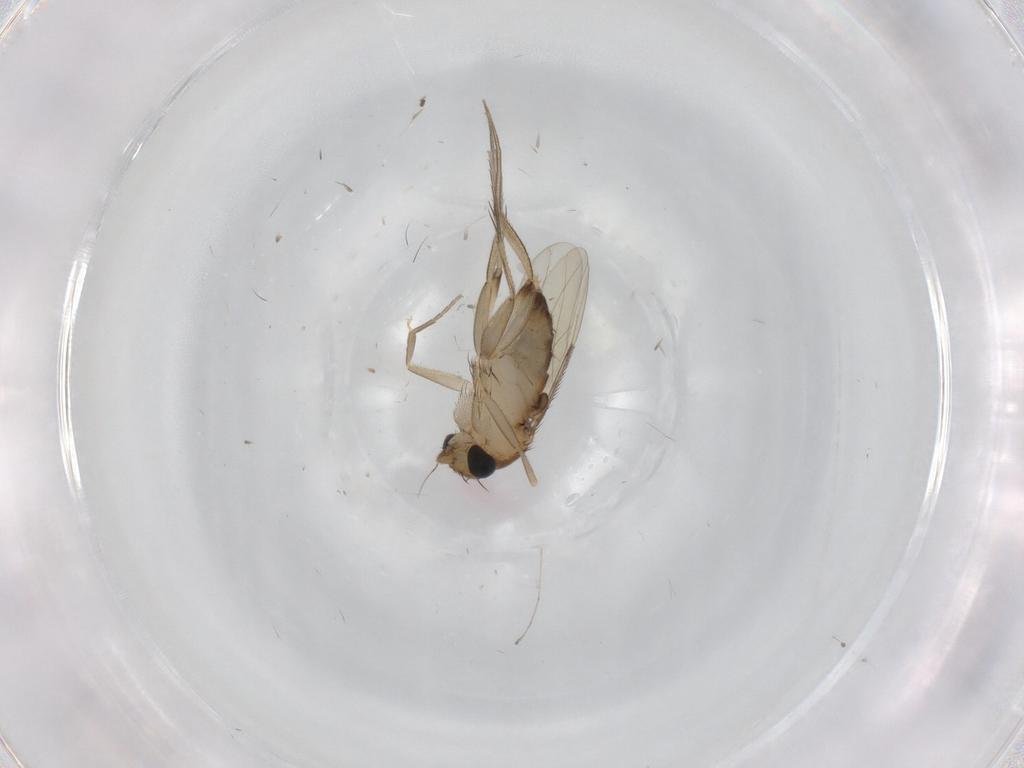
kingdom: Animalia
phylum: Arthropoda
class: Insecta
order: Diptera
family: Phoridae
